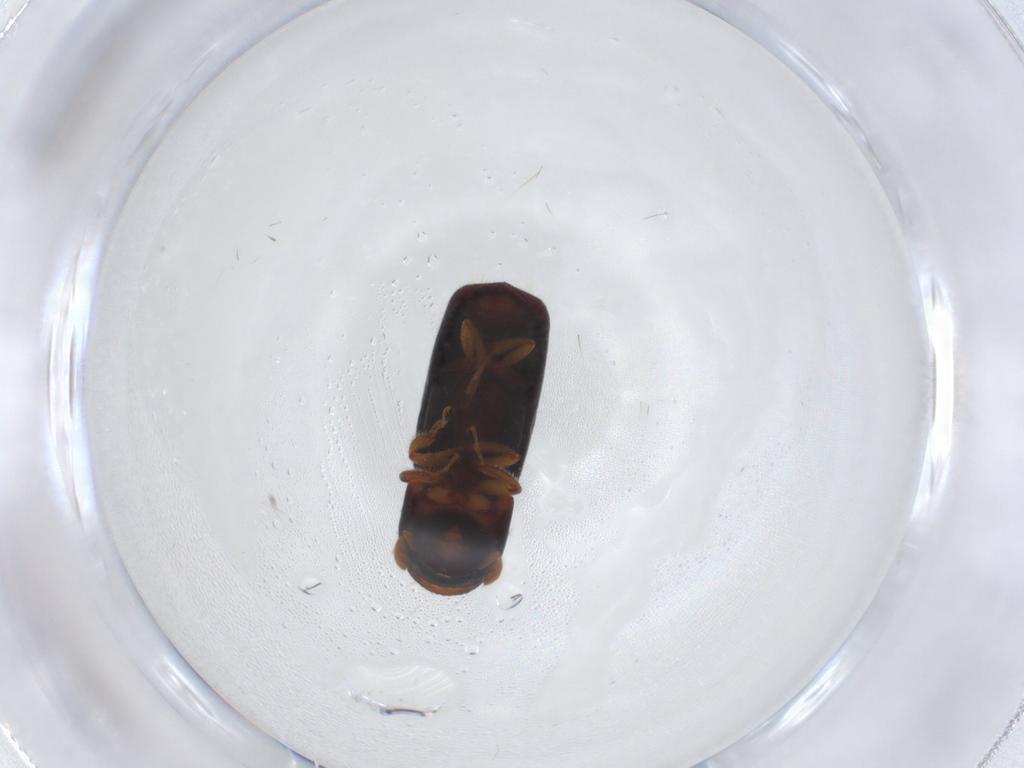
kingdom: Animalia
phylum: Arthropoda
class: Insecta
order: Coleoptera
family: Curculionidae
